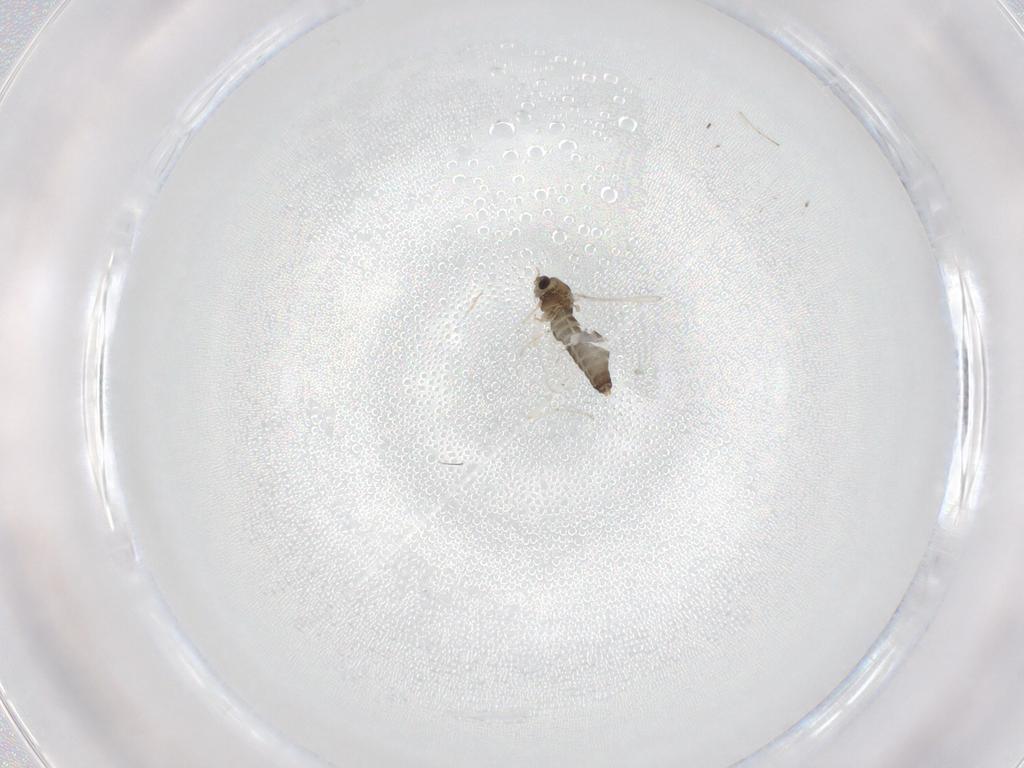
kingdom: Animalia
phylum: Arthropoda
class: Insecta
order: Diptera
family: Chironomidae
